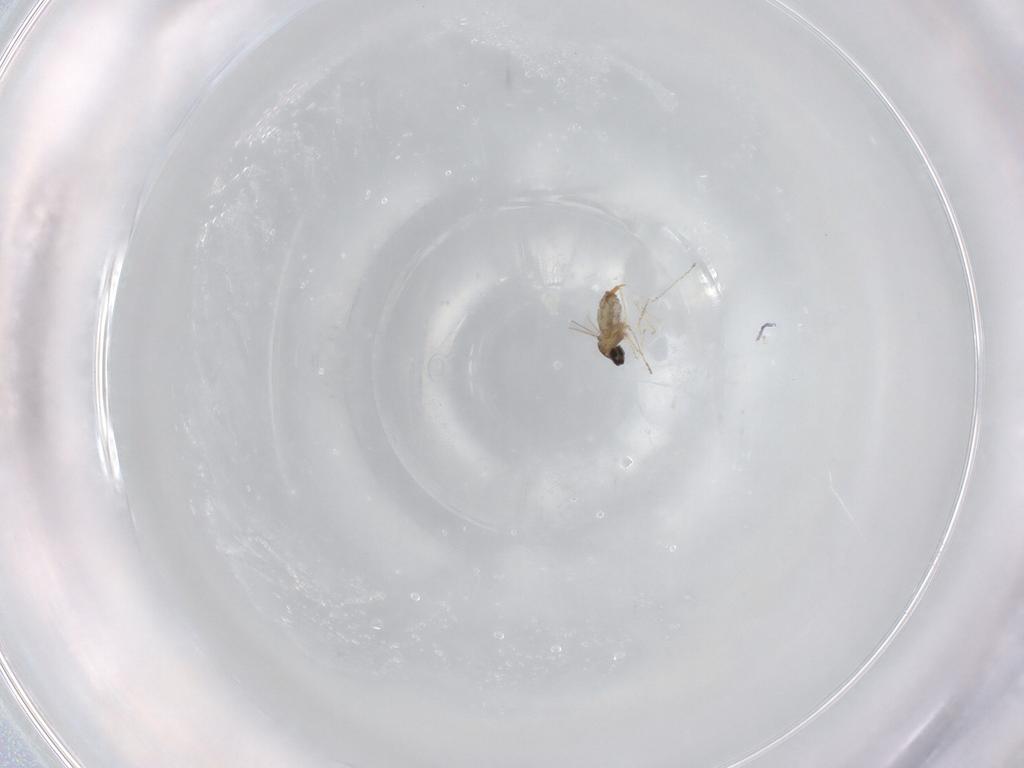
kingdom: Animalia
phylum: Arthropoda
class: Insecta
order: Diptera
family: Cecidomyiidae
